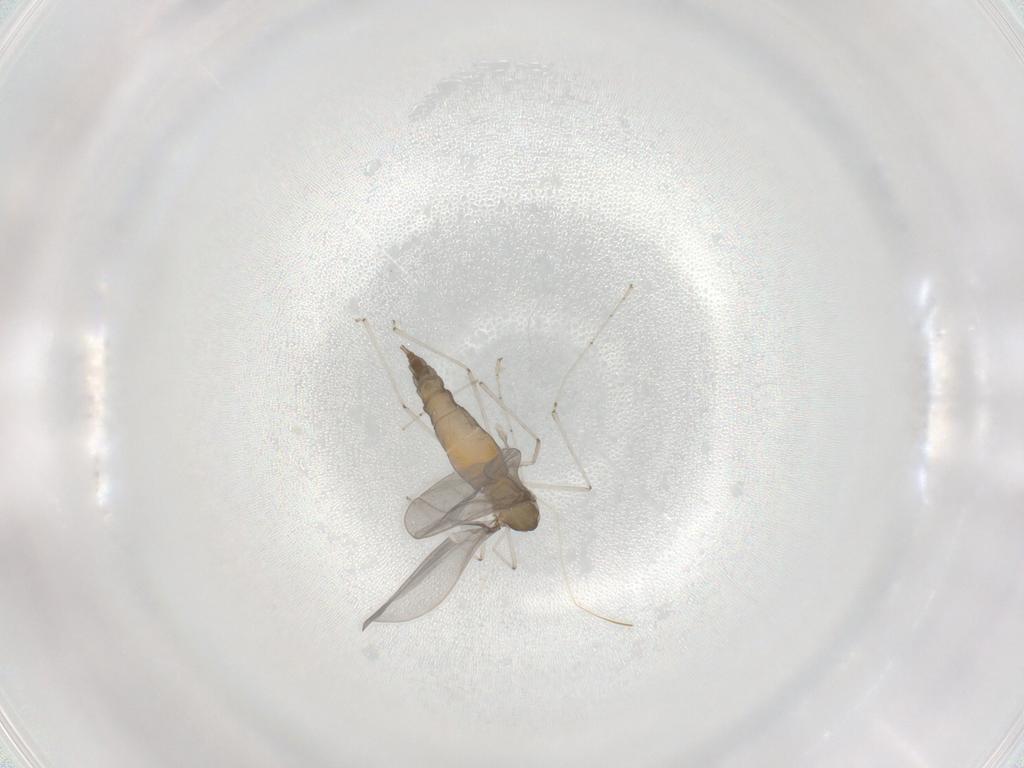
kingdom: Animalia
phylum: Arthropoda
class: Insecta
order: Diptera
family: Cecidomyiidae
